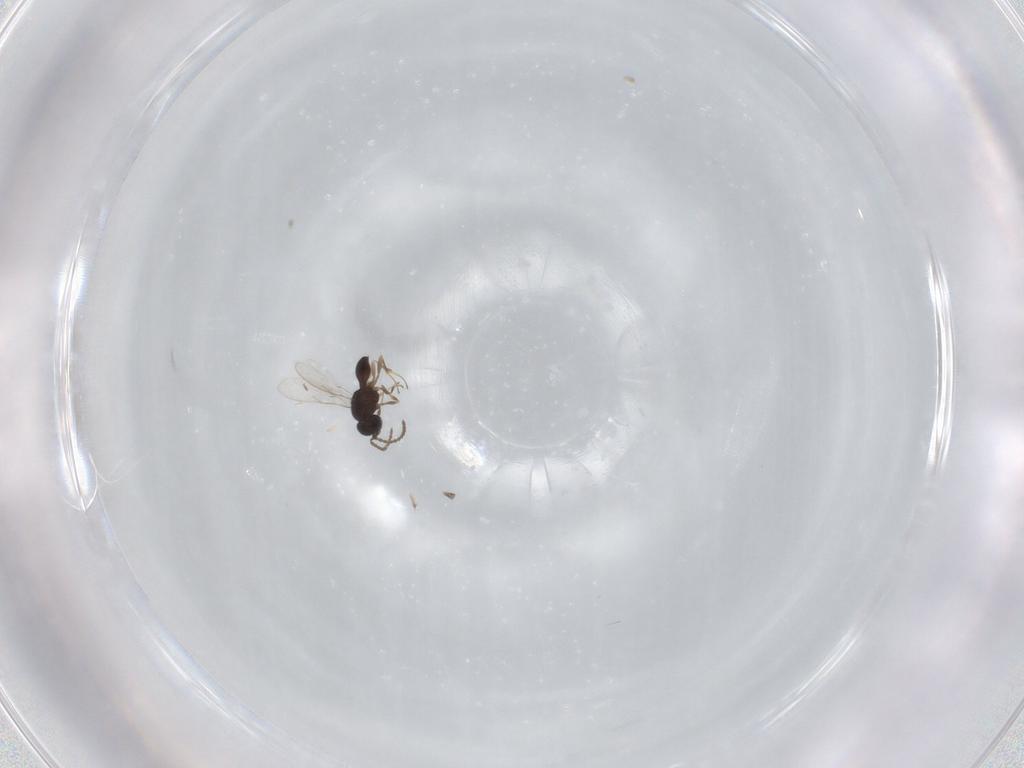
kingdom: Animalia
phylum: Arthropoda
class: Insecta
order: Hymenoptera
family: Scelionidae
